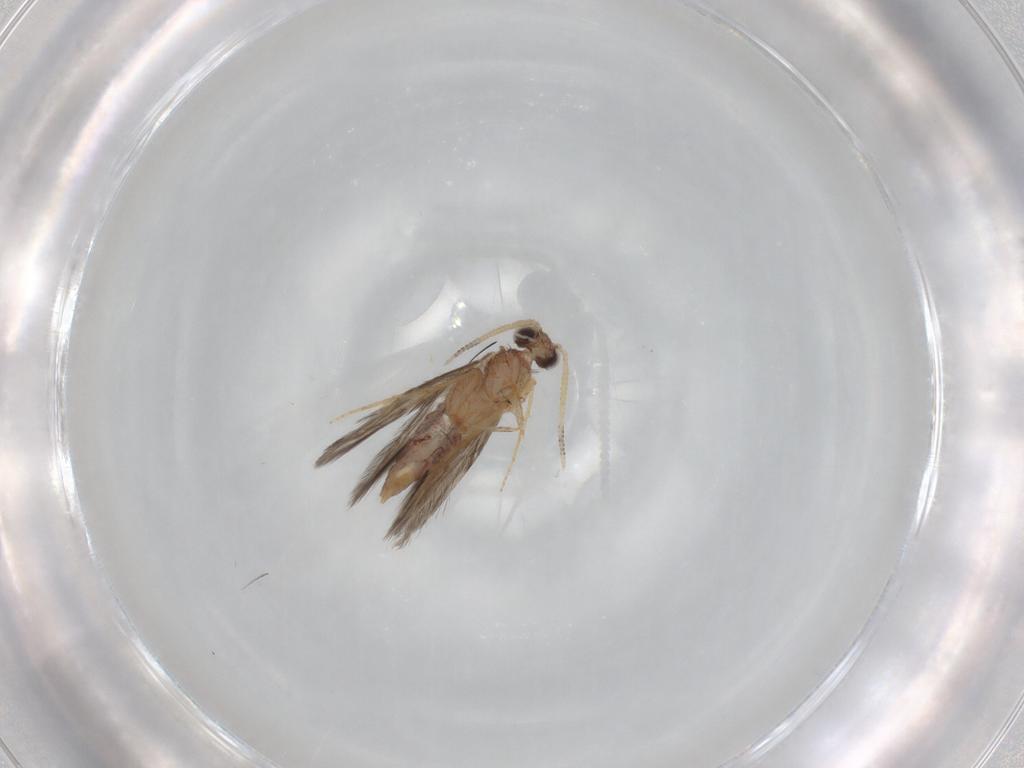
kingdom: Animalia
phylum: Arthropoda
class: Insecta
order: Trichoptera
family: Hydroptilidae
